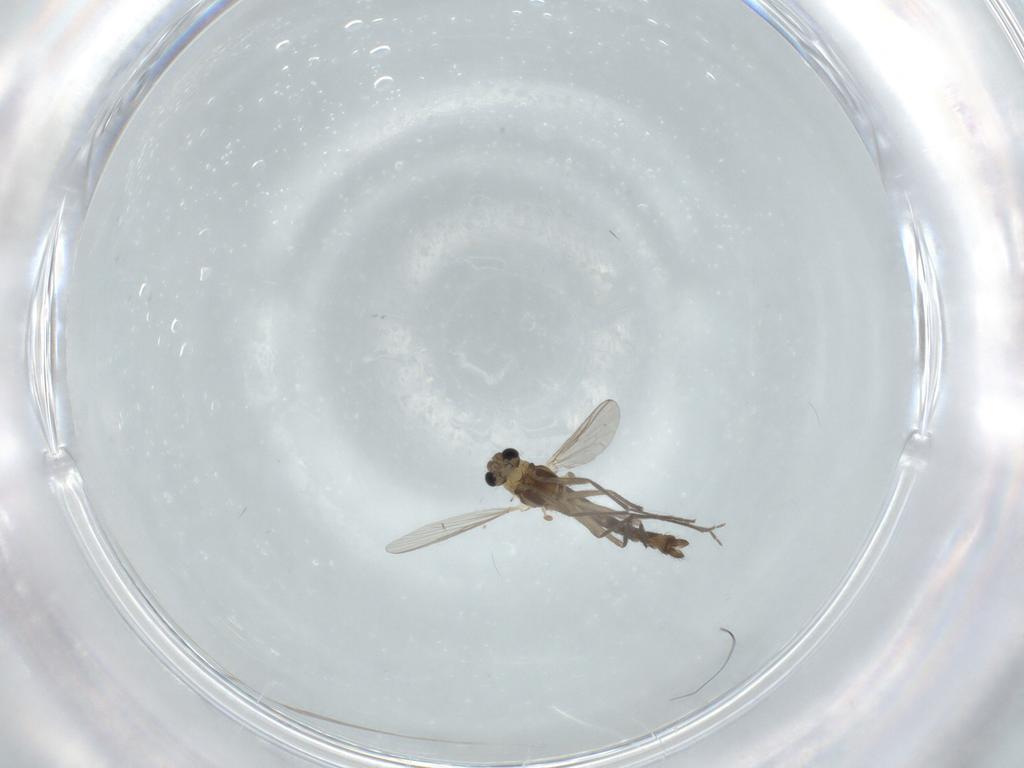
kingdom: Animalia
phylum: Arthropoda
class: Insecta
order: Diptera
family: Chironomidae
